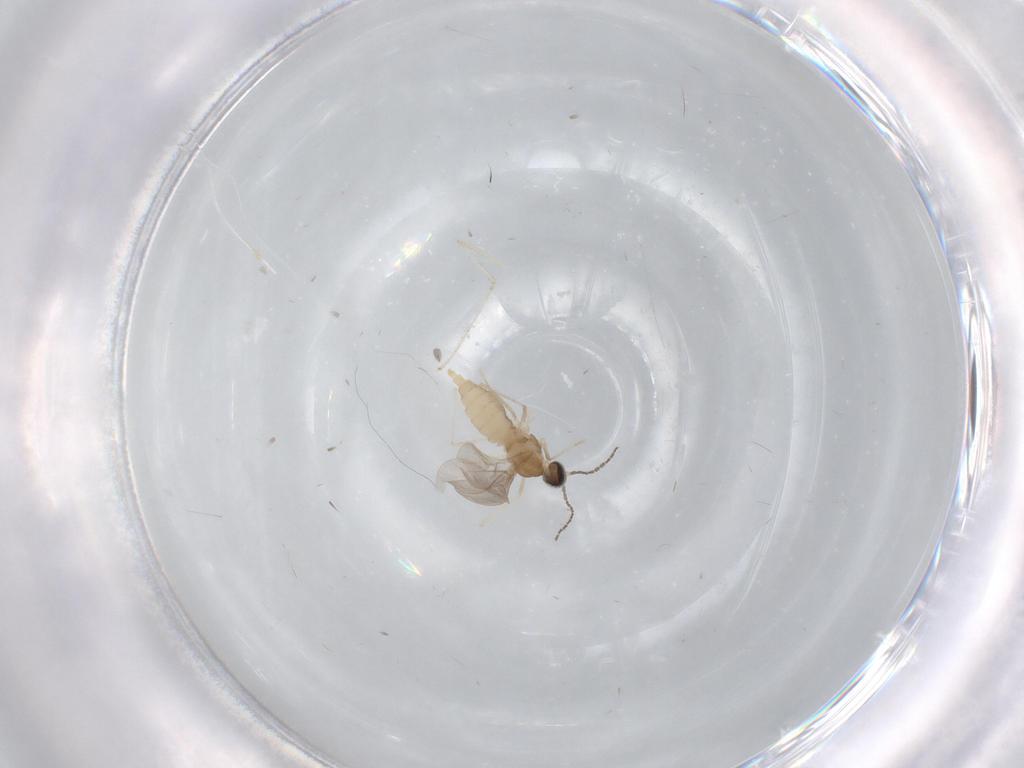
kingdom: Animalia
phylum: Arthropoda
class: Insecta
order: Diptera
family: Cecidomyiidae
